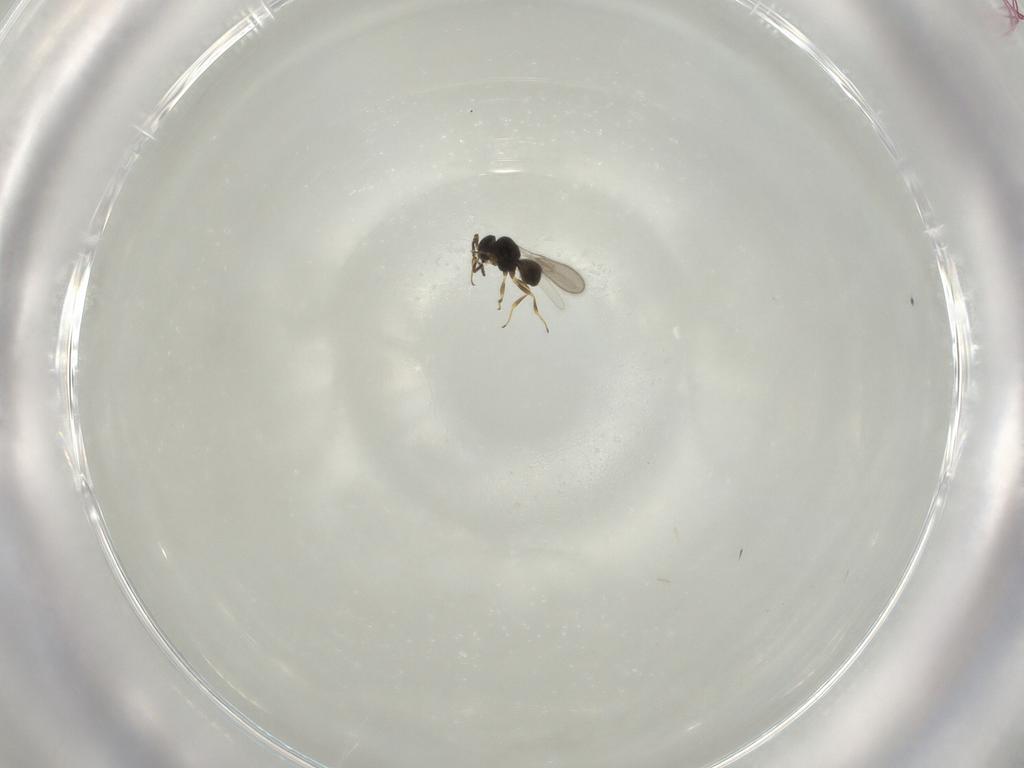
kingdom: Animalia
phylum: Arthropoda
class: Insecta
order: Hymenoptera
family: Scelionidae
